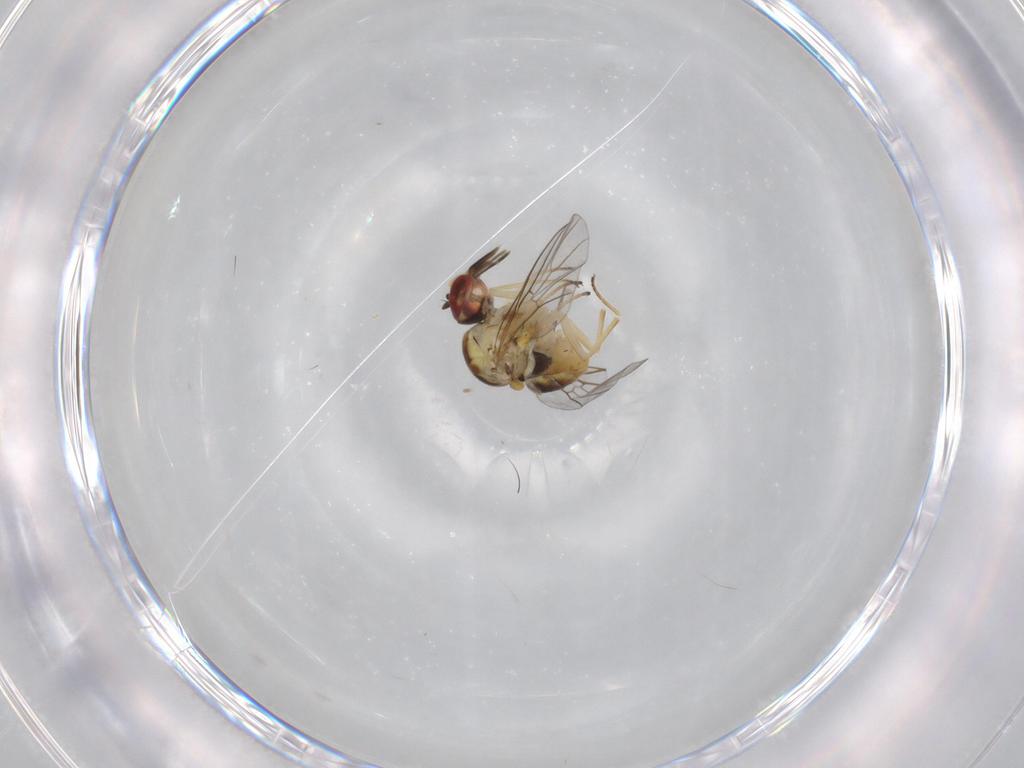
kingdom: Animalia
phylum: Arthropoda
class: Insecta
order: Diptera
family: Bombyliidae
